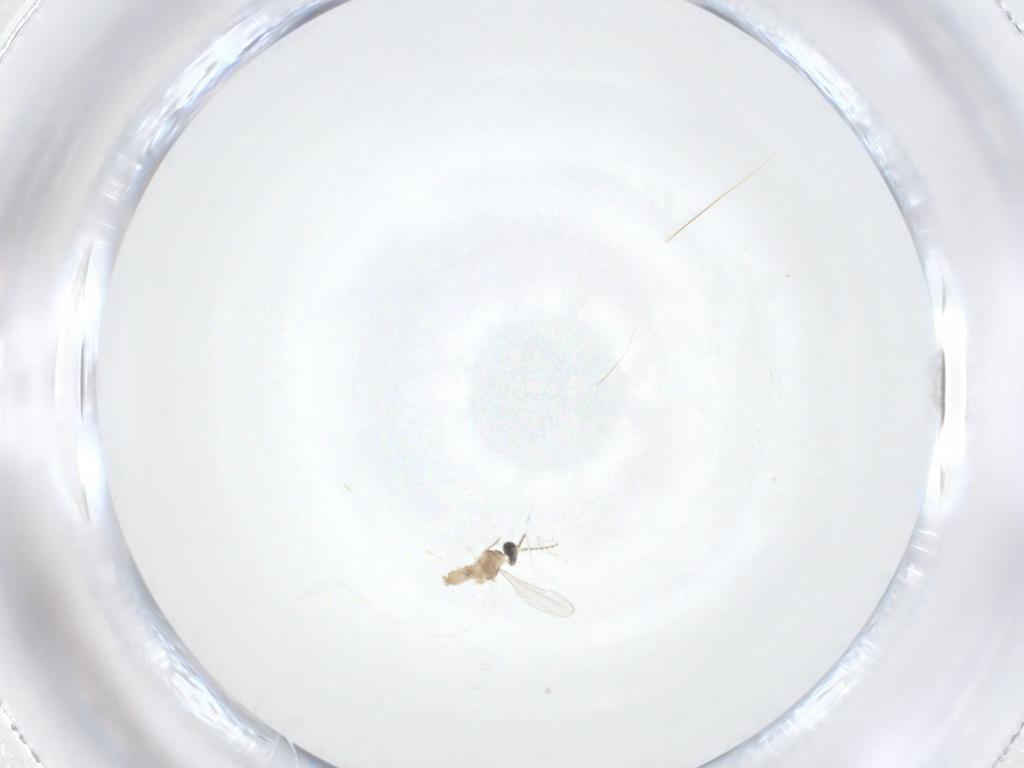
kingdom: Animalia
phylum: Arthropoda
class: Insecta
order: Diptera
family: Cecidomyiidae
